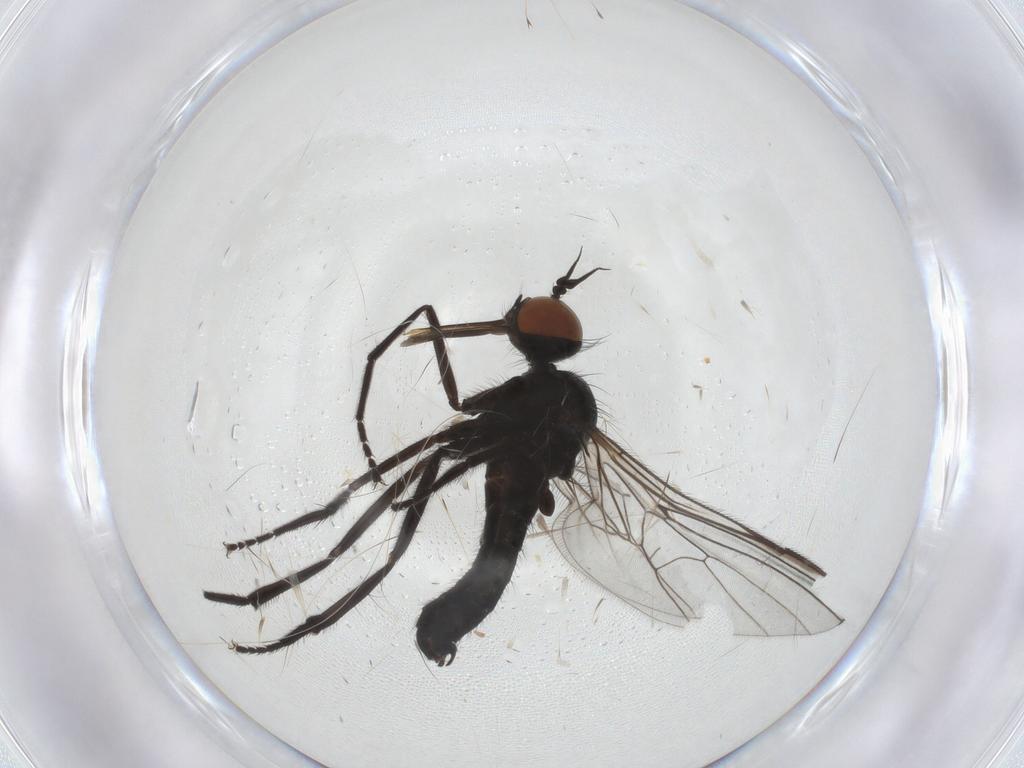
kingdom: Animalia
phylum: Arthropoda
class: Insecta
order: Diptera
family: Empididae
